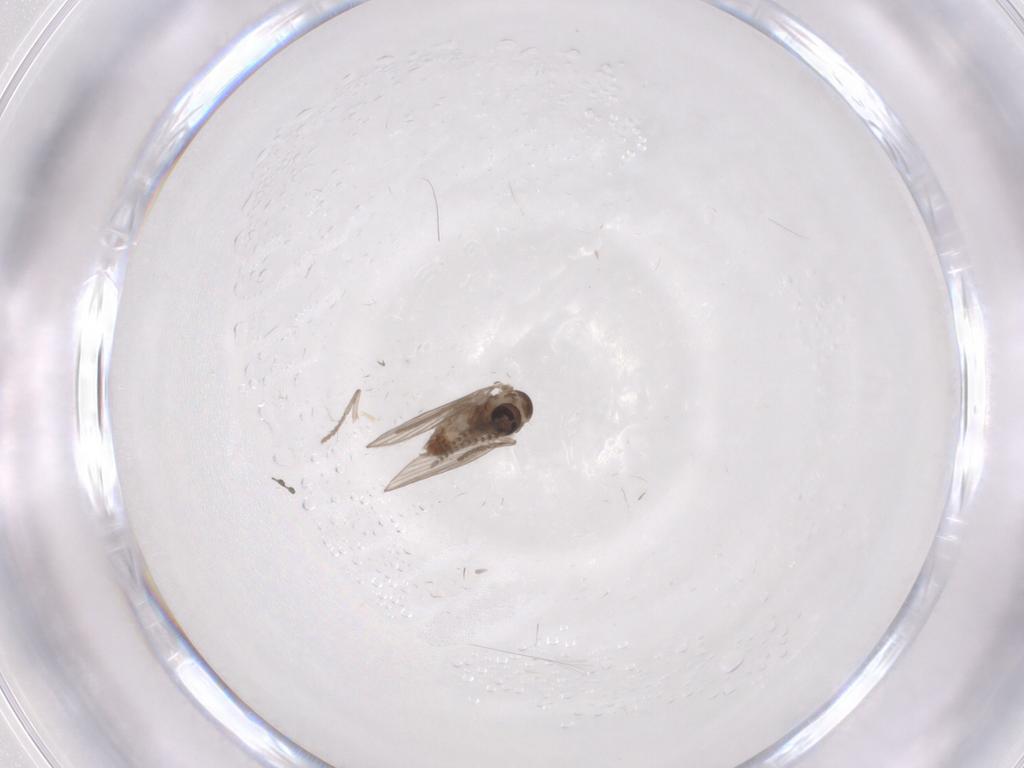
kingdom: Animalia
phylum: Arthropoda
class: Insecta
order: Diptera
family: Psychodidae
